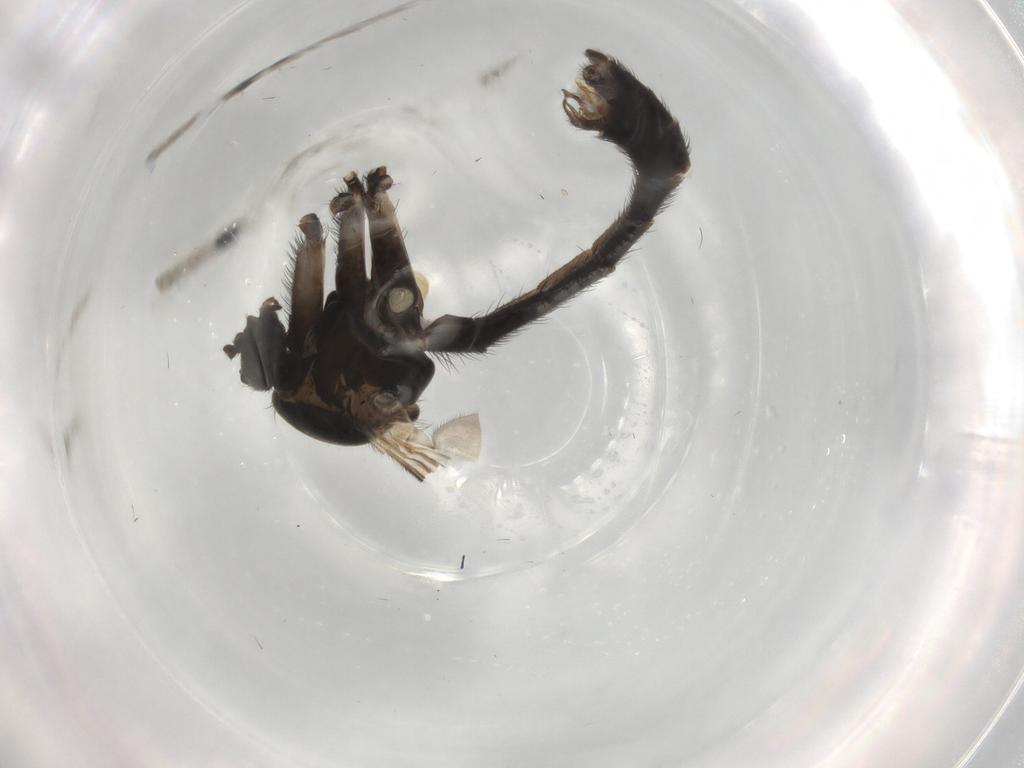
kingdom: Animalia
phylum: Arthropoda
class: Insecta
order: Diptera
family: Keroplatidae
